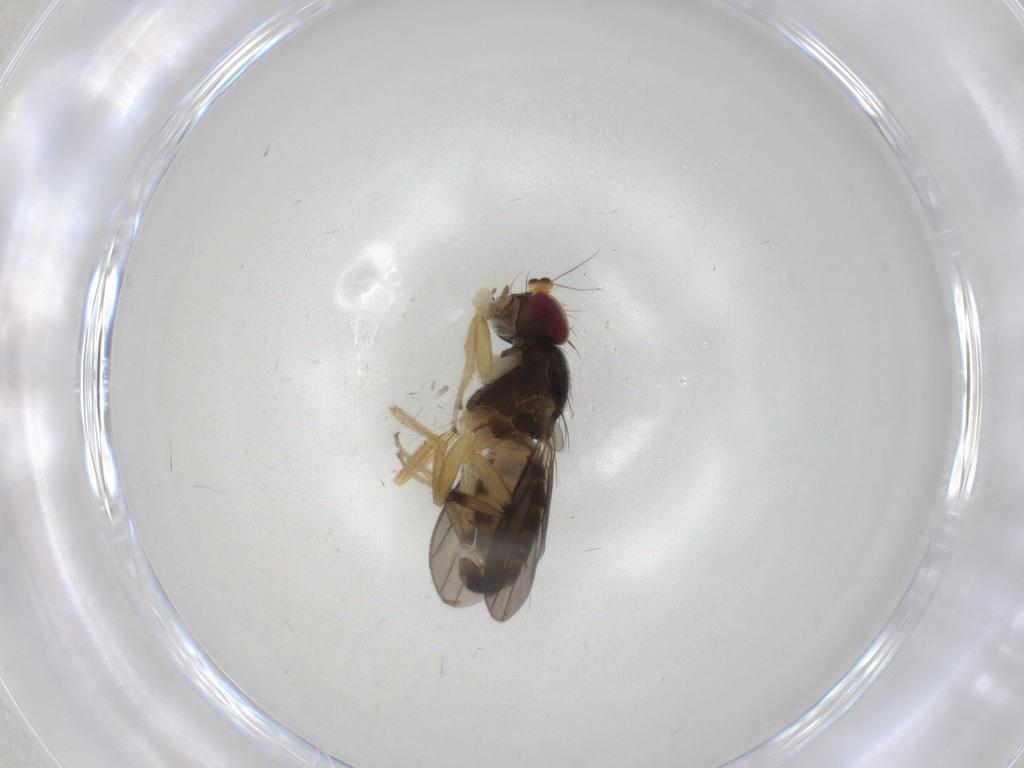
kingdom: Animalia
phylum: Arthropoda
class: Insecta
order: Diptera
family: Clusiidae
